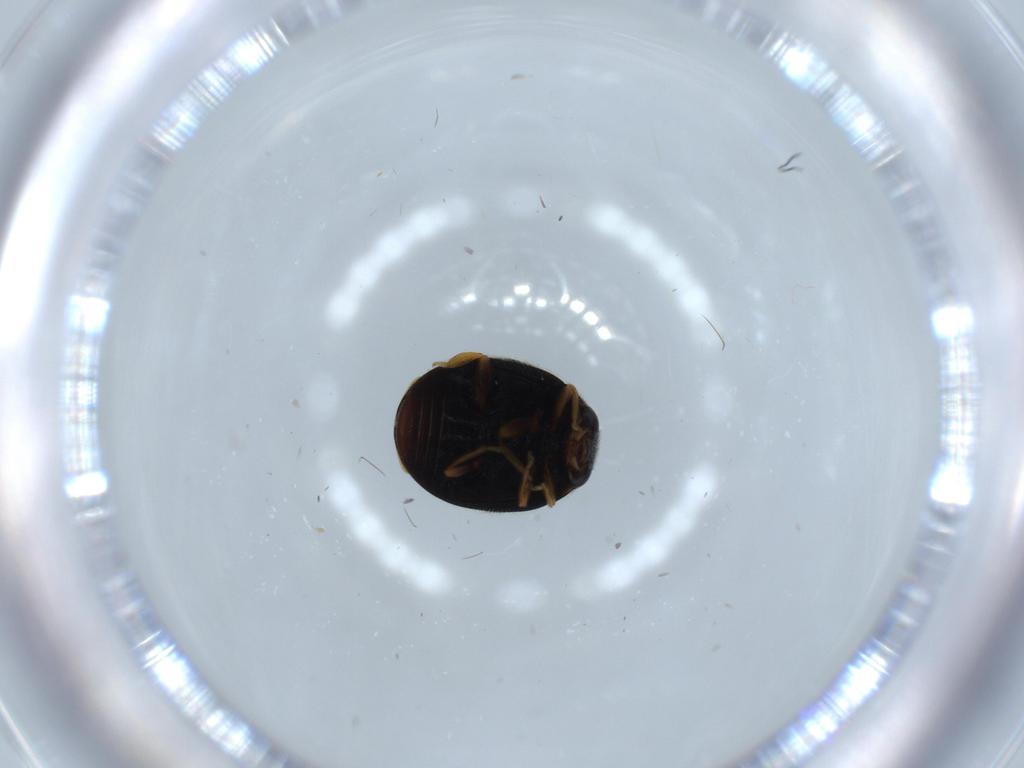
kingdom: Animalia
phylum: Arthropoda
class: Insecta
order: Coleoptera
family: Coccinellidae
